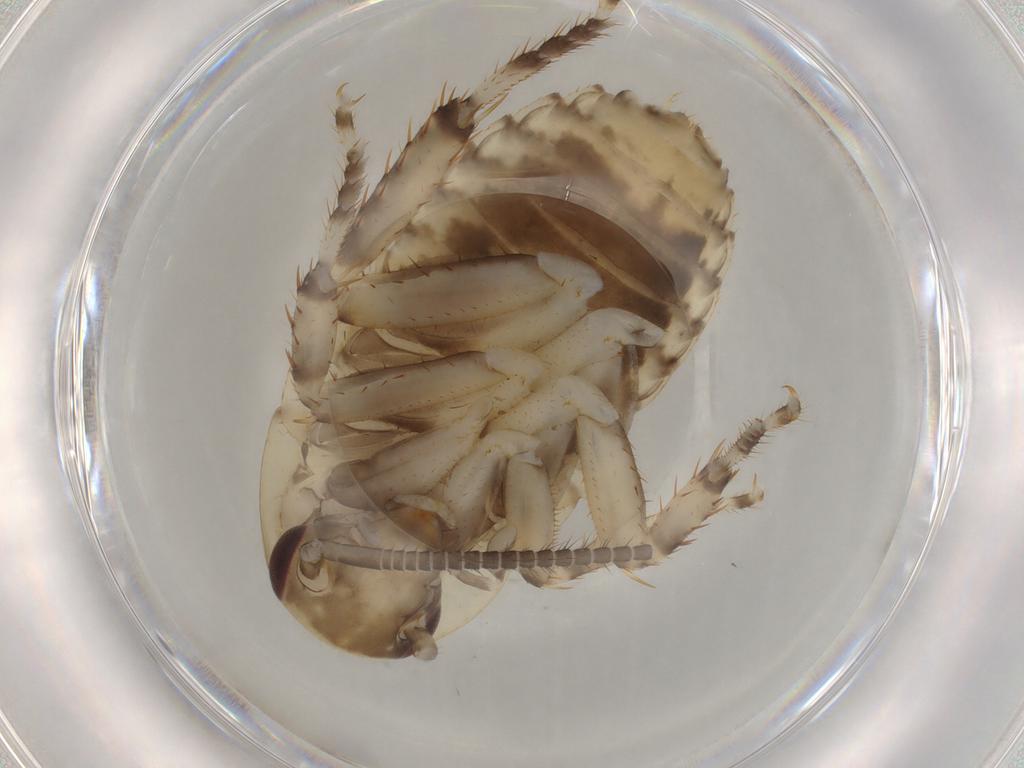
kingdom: Animalia
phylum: Arthropoda
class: Insecta
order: Blattodea
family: Blattidae
